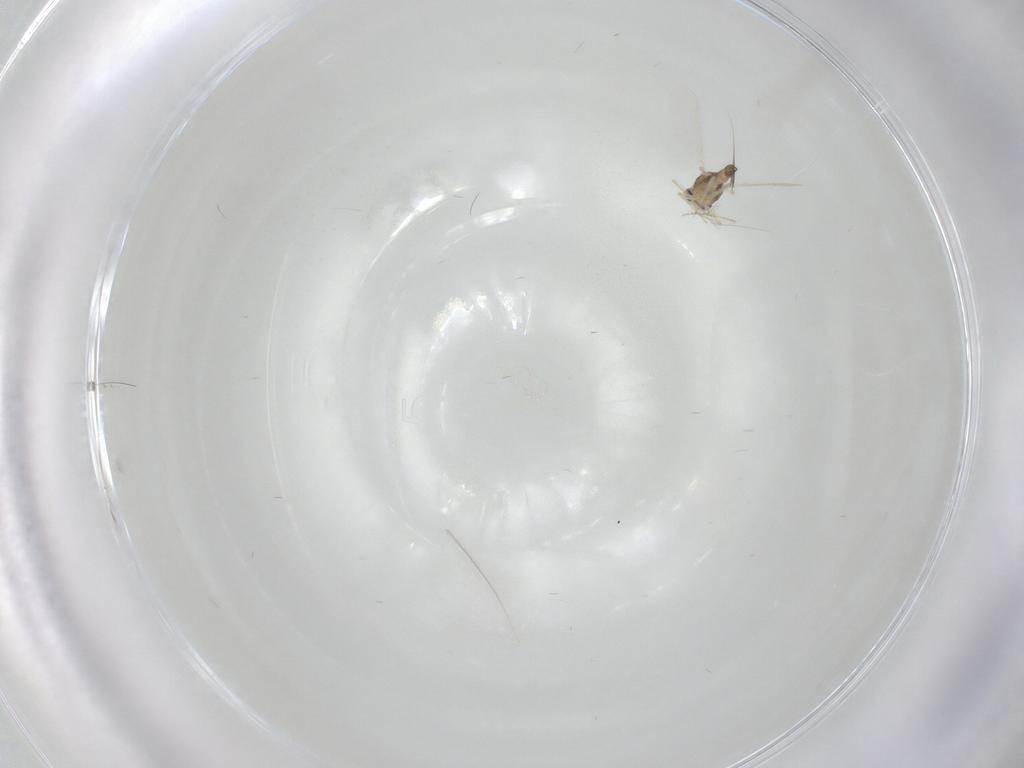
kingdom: Animalia
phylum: Arthropoda
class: Insecta
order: Diptera
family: Chironomidae
